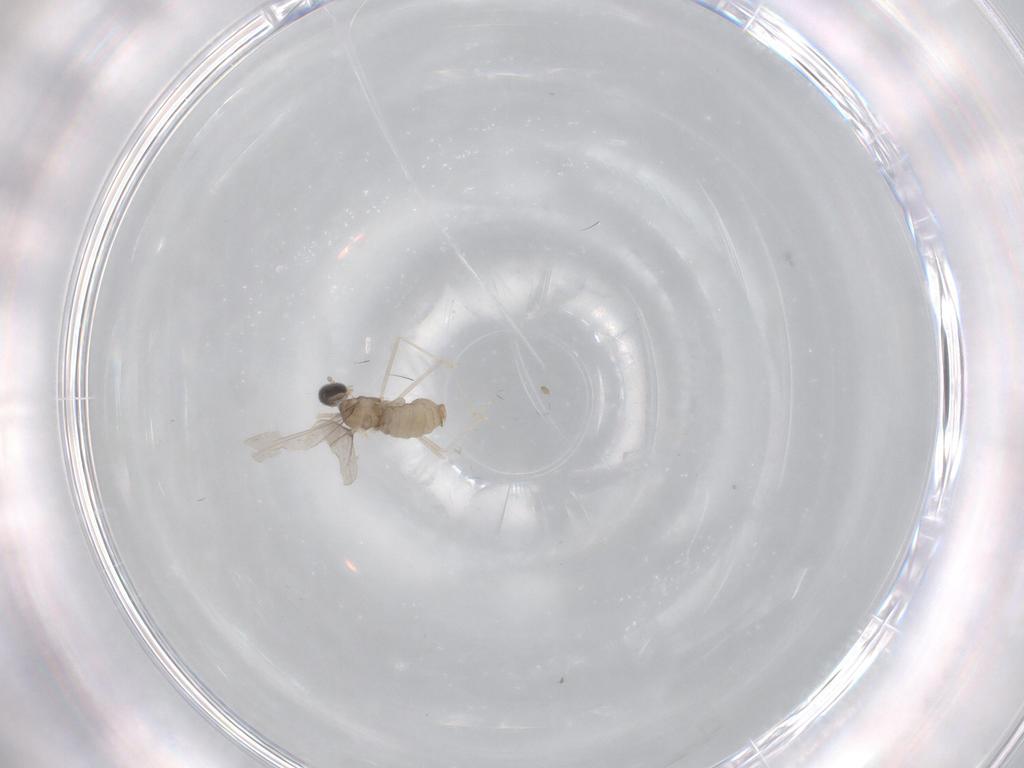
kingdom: Animalia
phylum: Arthropoda
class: Insecta
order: Diptera
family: Cecidomyiidae
